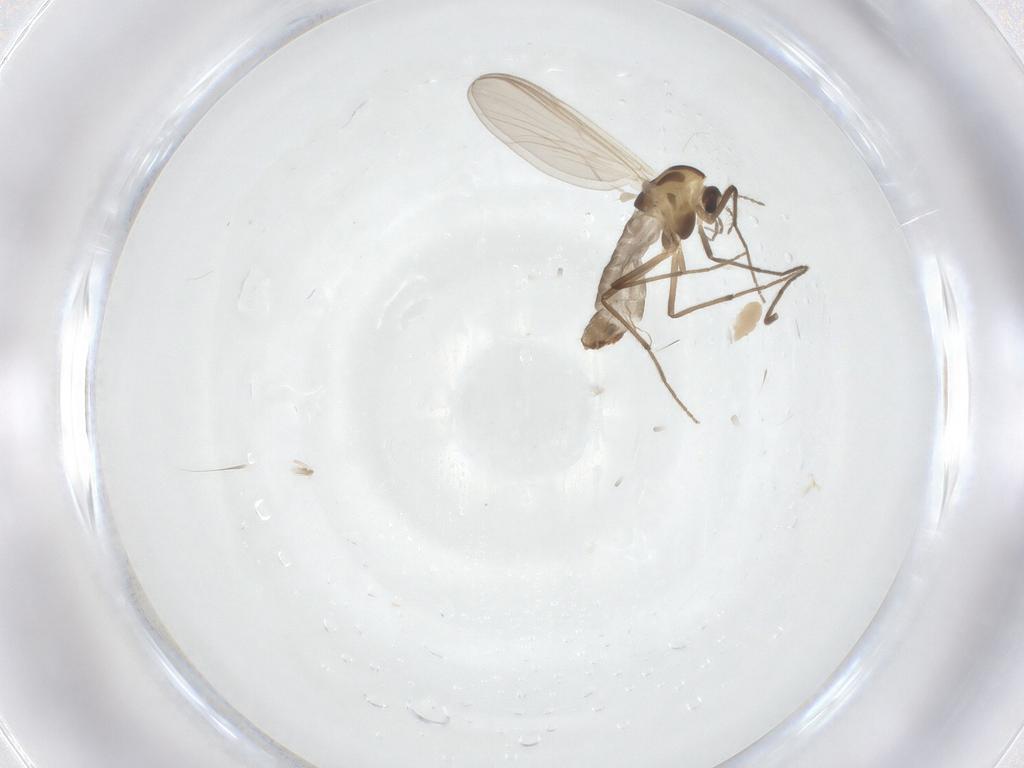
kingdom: Animalia
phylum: Arthropoda
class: Insecta
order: Diptera
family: Chironomidae
